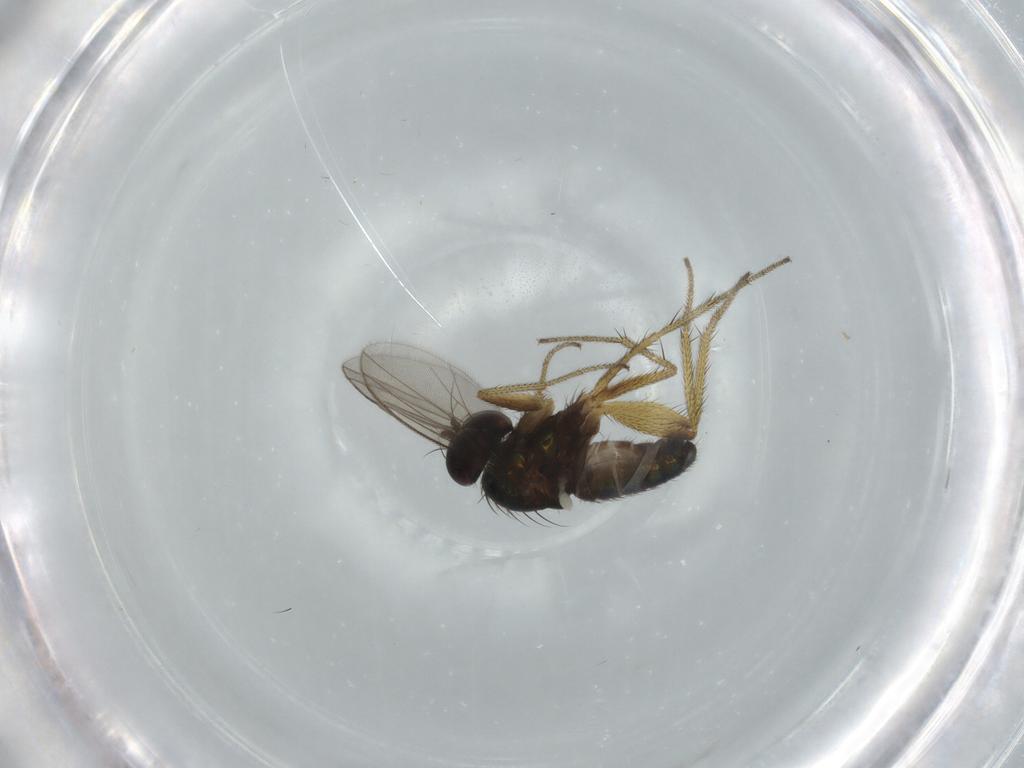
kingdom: Animalia
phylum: Arthropoda
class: Insecta
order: Diptera
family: Dolichopodidae
